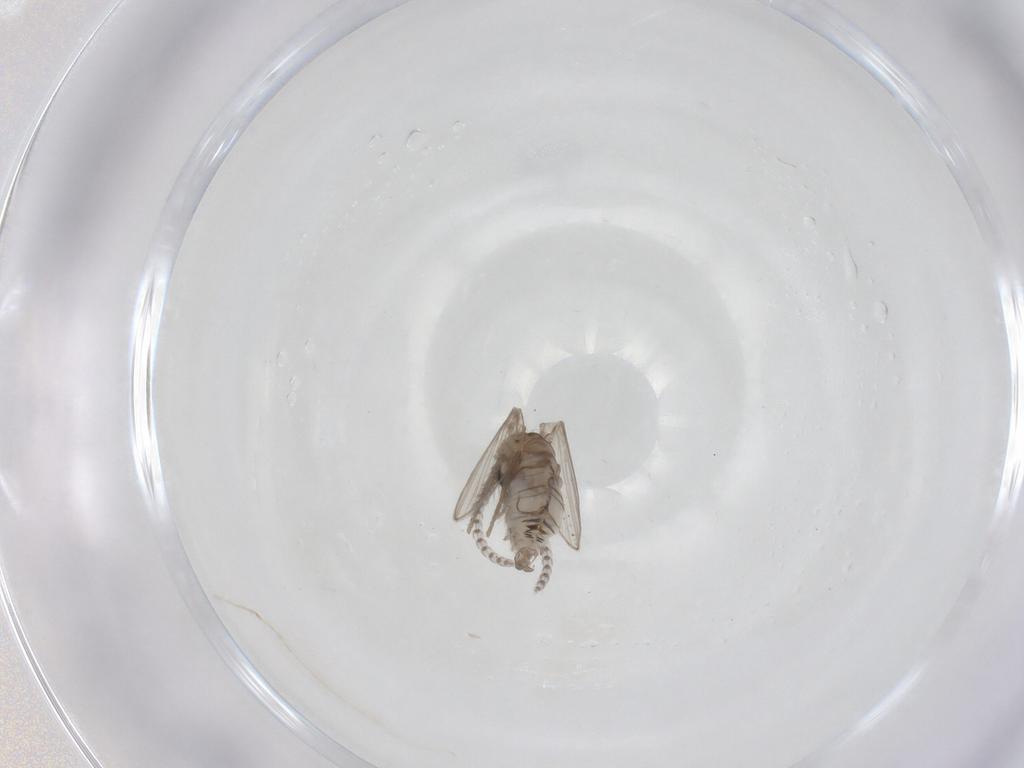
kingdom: Animalia
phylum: Arthropoda
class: Insecta
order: Diptera
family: Psychodidae
